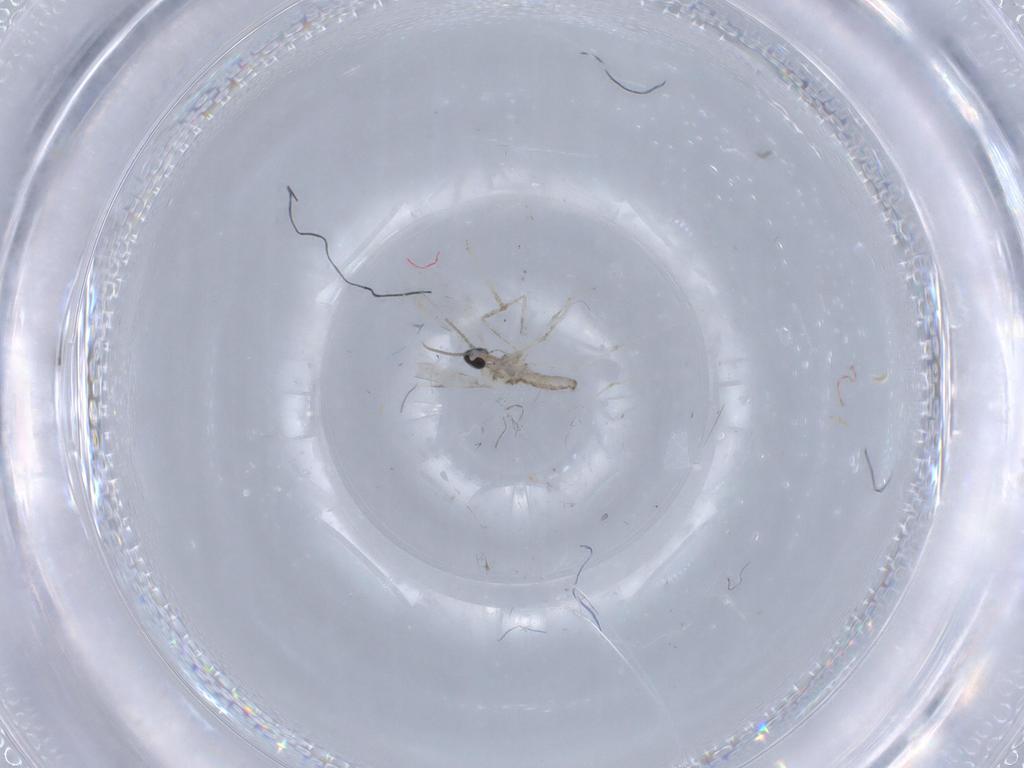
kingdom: Animalia
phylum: Arthropoda
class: Insecta
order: Diptera
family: Cecidomyiidae
